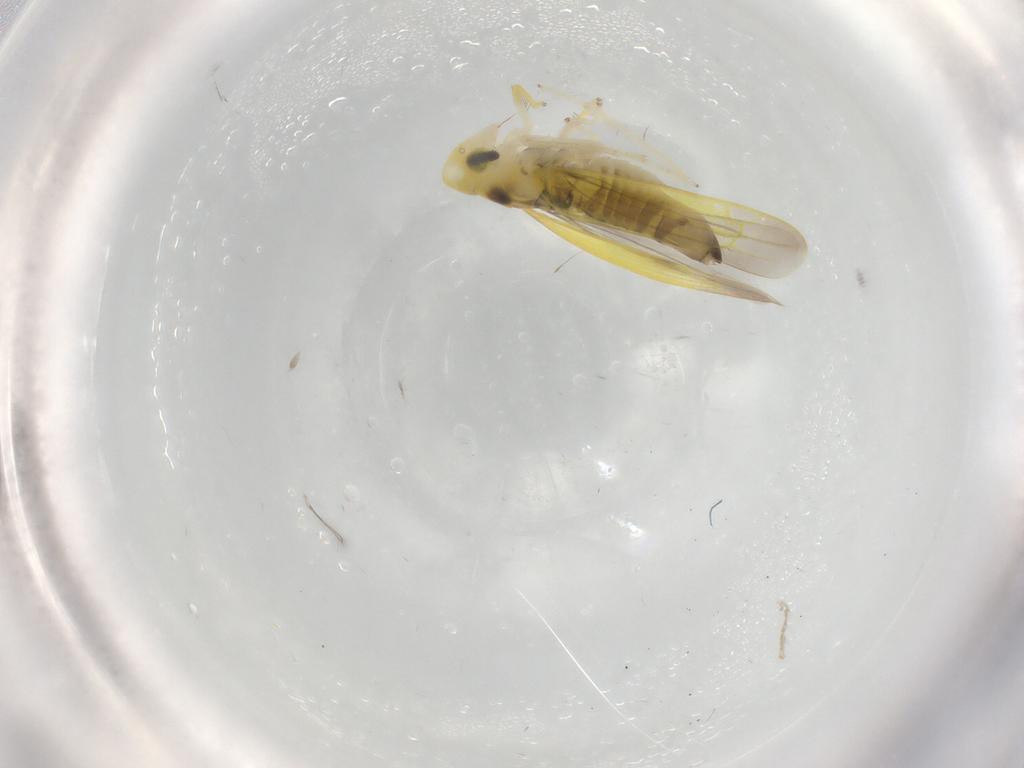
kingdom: Animalia
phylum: Arthropoda
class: Insecta
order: Hemiptera
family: Cicadellidae
